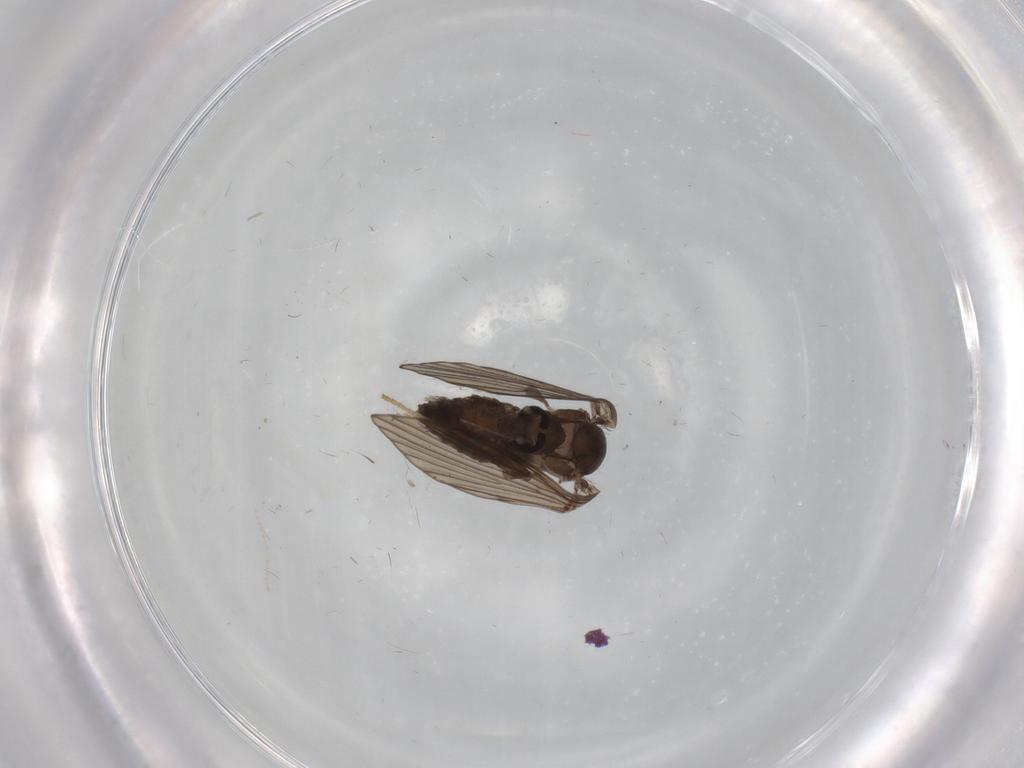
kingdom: Animalia
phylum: Arthropoda
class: Insecta
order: Diptera
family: Psychodidae
